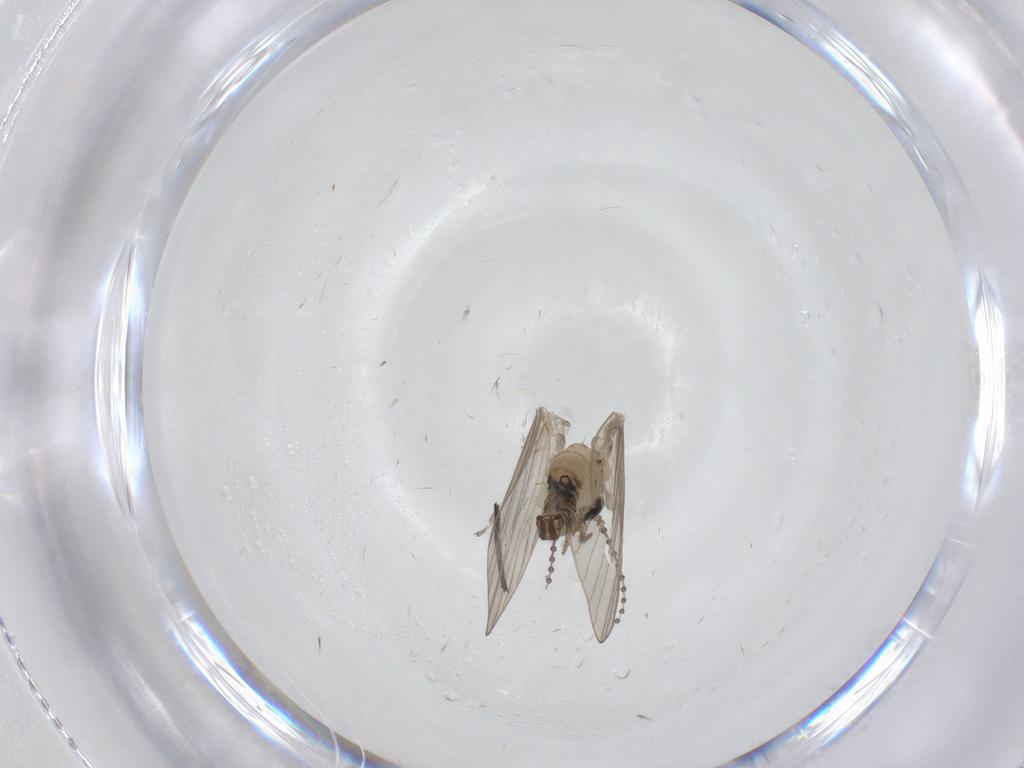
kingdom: Animalia
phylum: Arthropoda
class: Insecta
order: Diptera
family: Psychodidae
